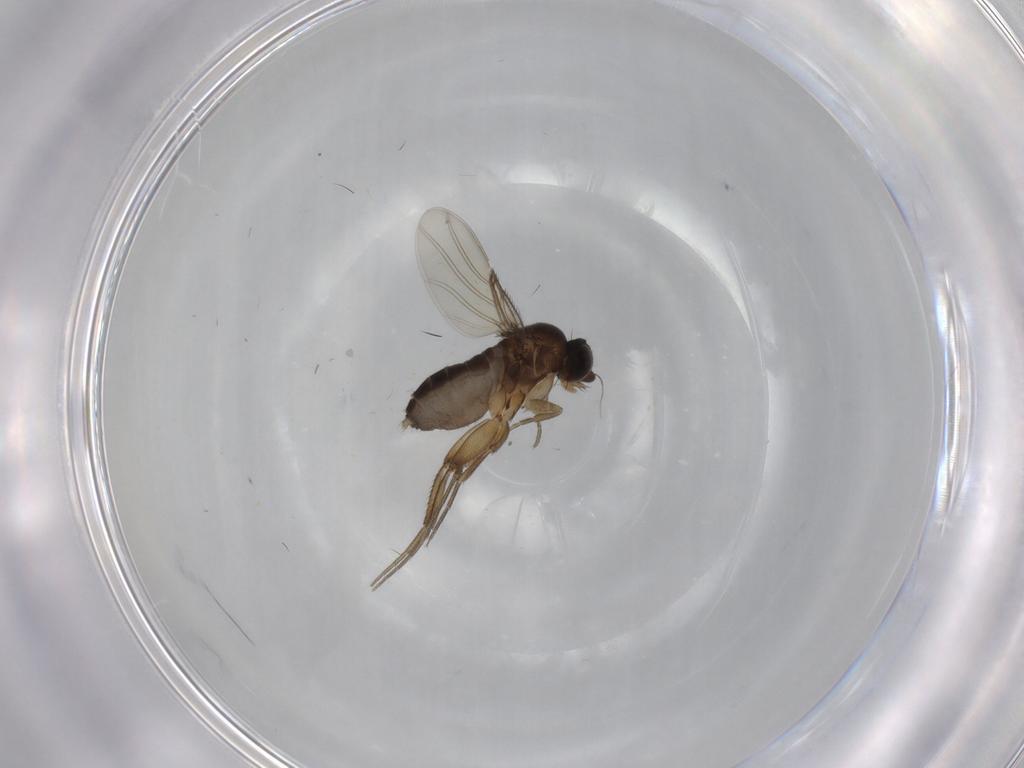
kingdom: Animalia
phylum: Arthropoda
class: Insecta
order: Diptera
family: Phoridae
